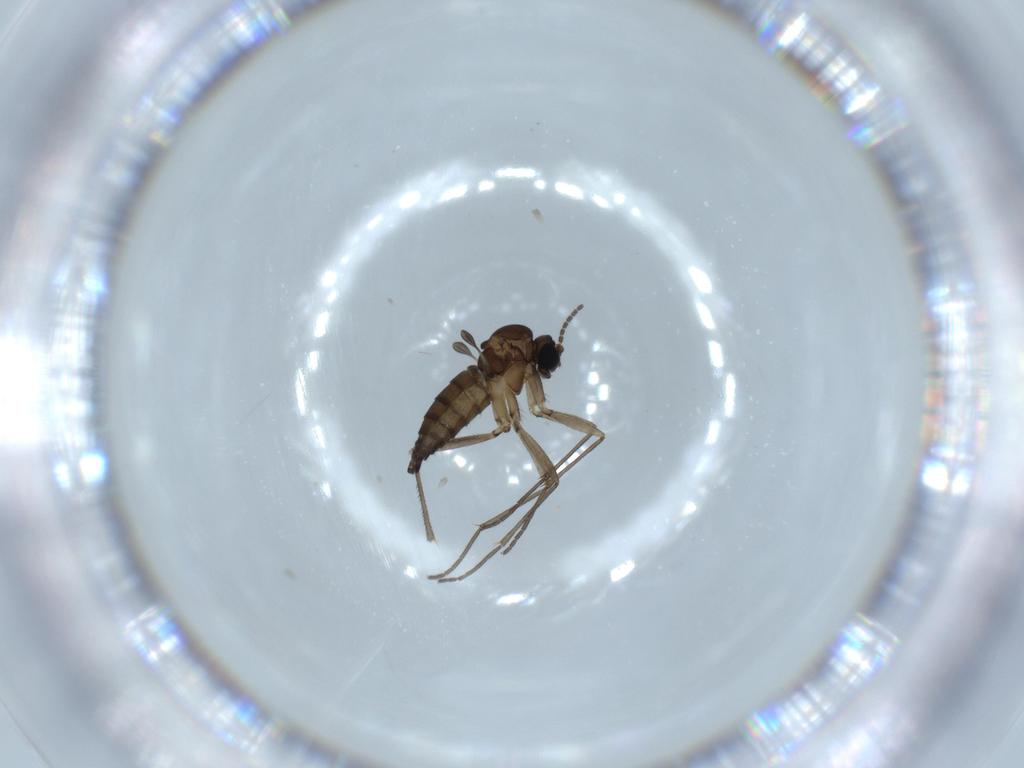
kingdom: Animalia
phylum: Arthropoda
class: Insecta
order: Diptera
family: Sciaridae
